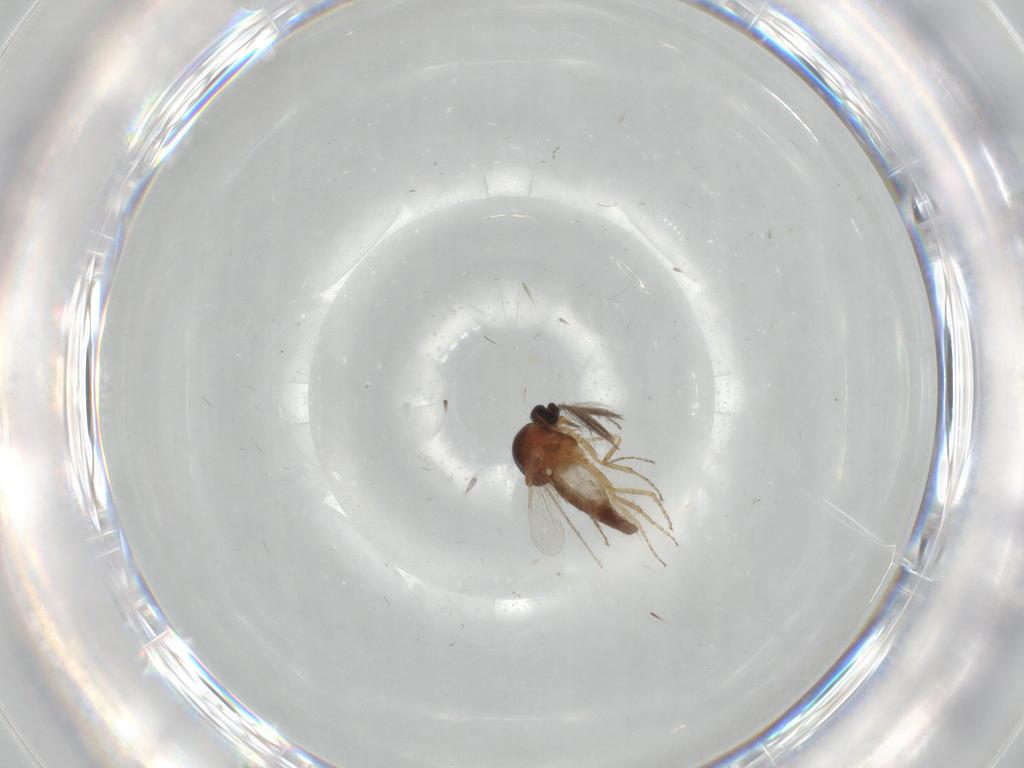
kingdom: Animalia
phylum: Arthropoda
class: Insecta
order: Diptera
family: Ceratopogonidae
